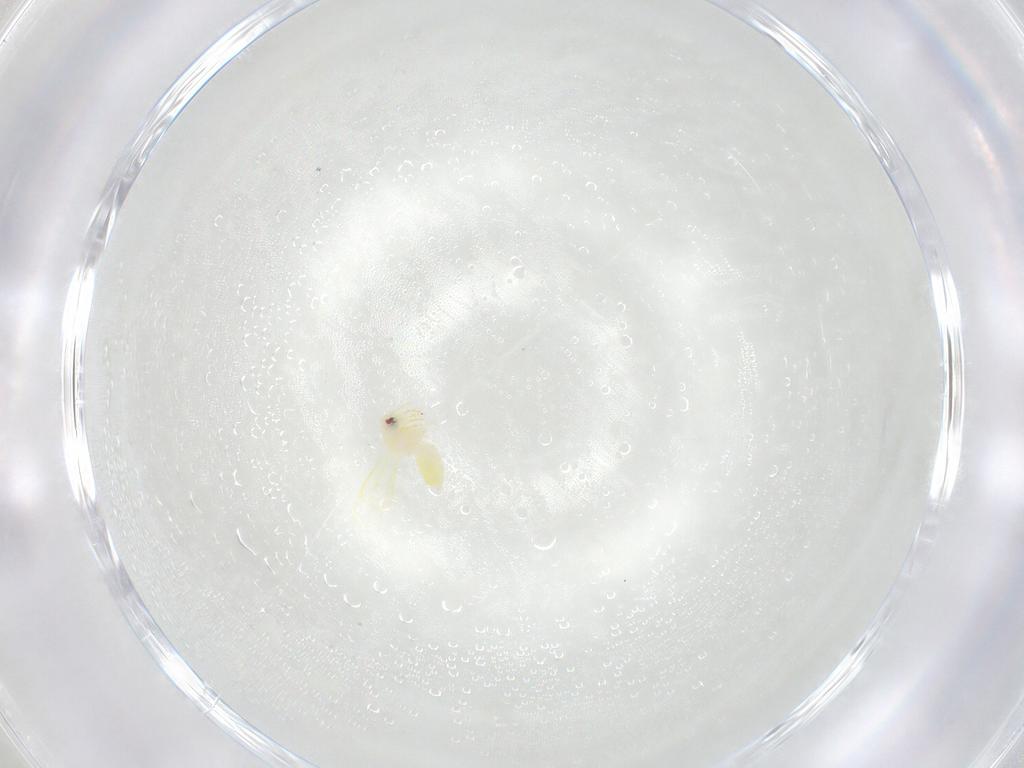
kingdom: Animalia
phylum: Arthropoda
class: Insecta
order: Hemiptera
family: Aleyrodidae
